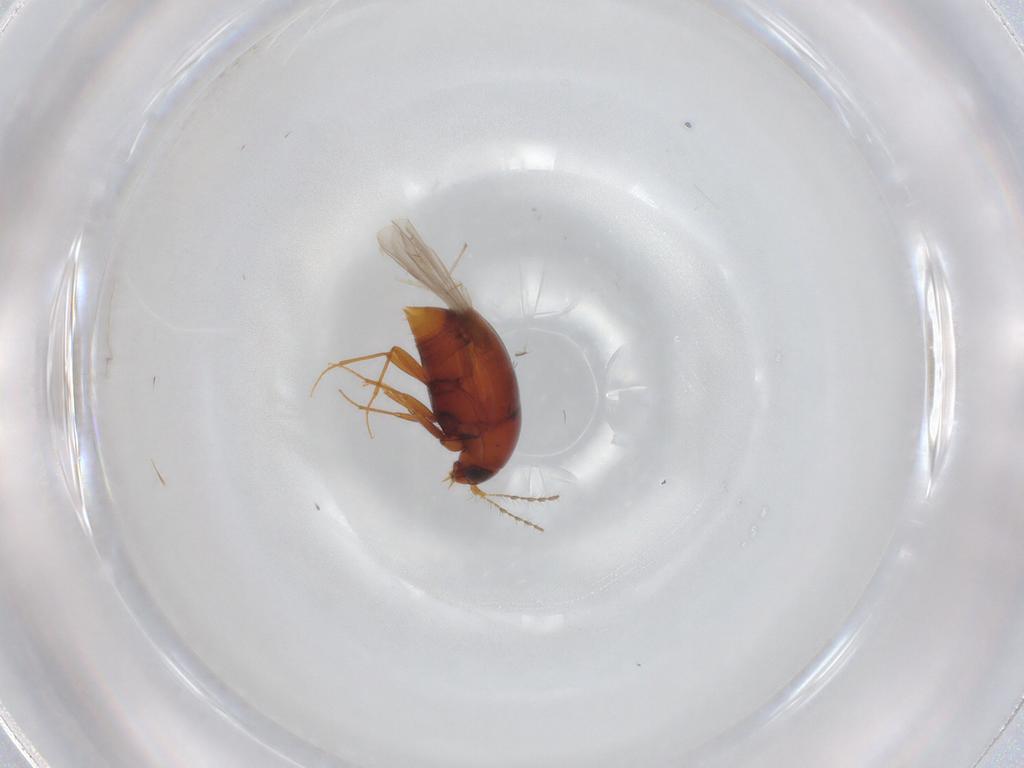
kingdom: Animalia
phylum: Arthropoda
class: Insecta
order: Coleoptera
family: Staphylinidae
